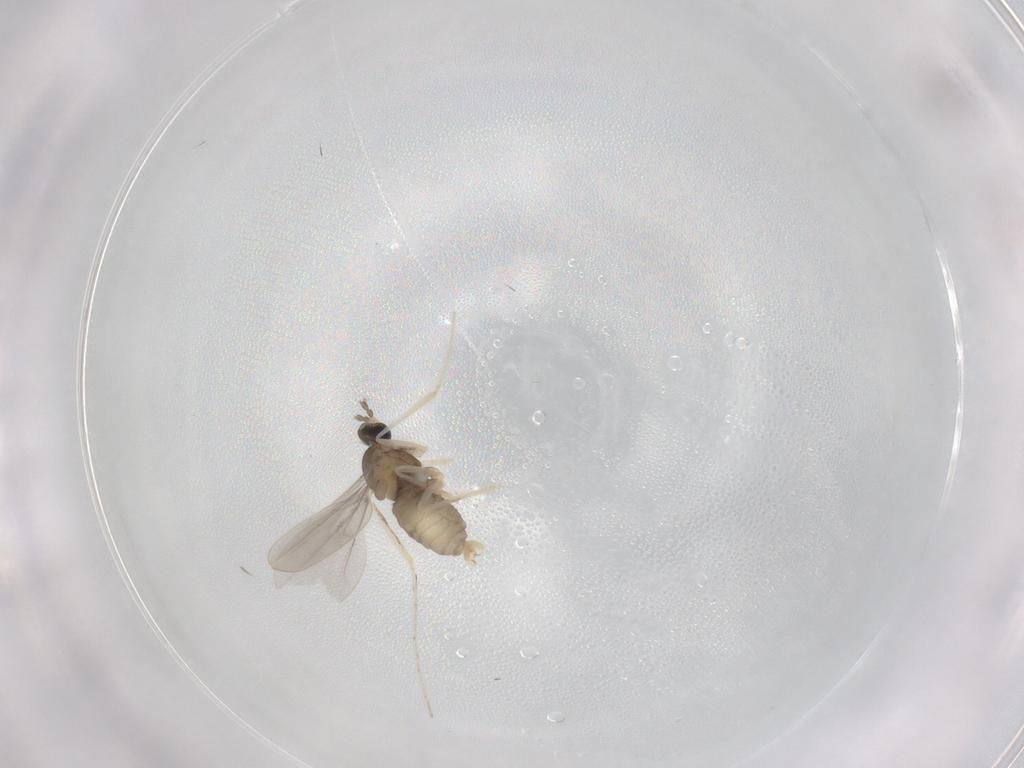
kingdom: Animalia
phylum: Arthropoda
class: Insecta
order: Diptera
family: Cecidomyiidae
